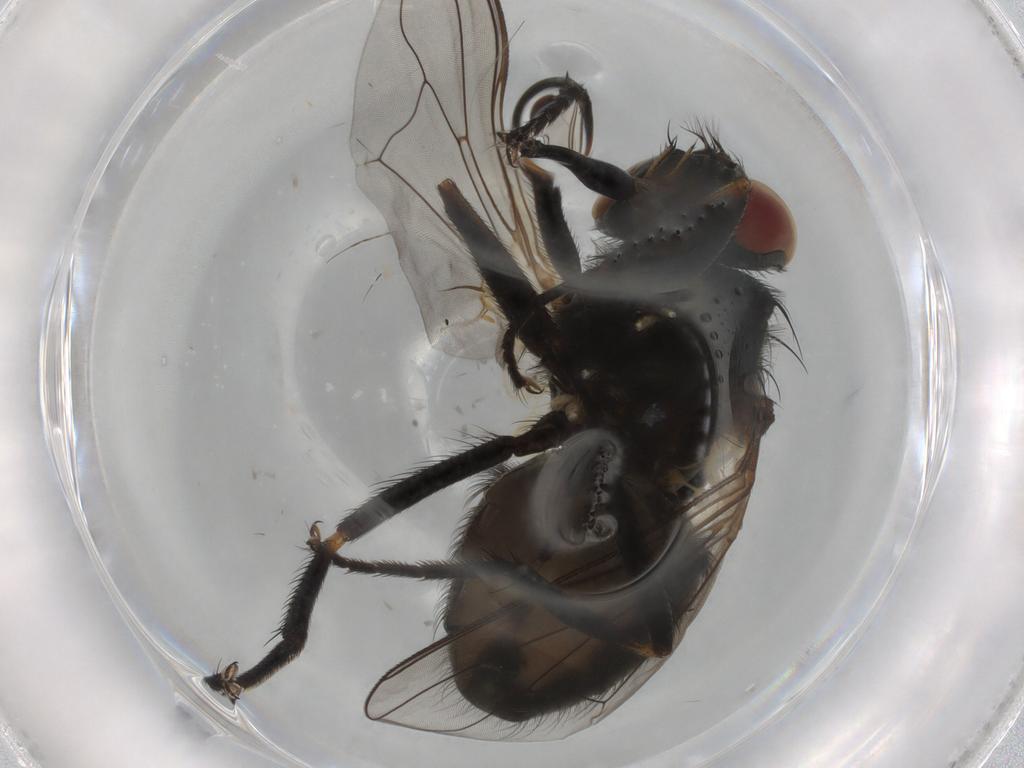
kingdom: Animalia
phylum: Arthropoda
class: Insecta
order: Diptera
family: Muscidae
